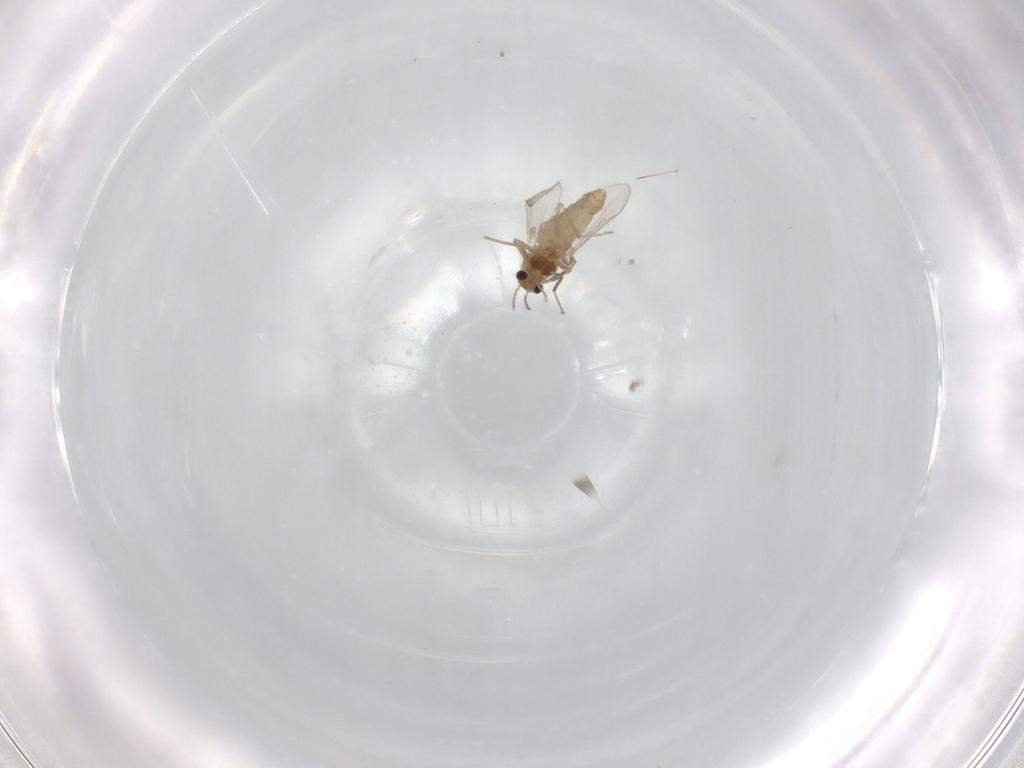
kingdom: Animalia
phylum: Arthropoda
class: Insecta
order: Diptera
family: Chironomidae
